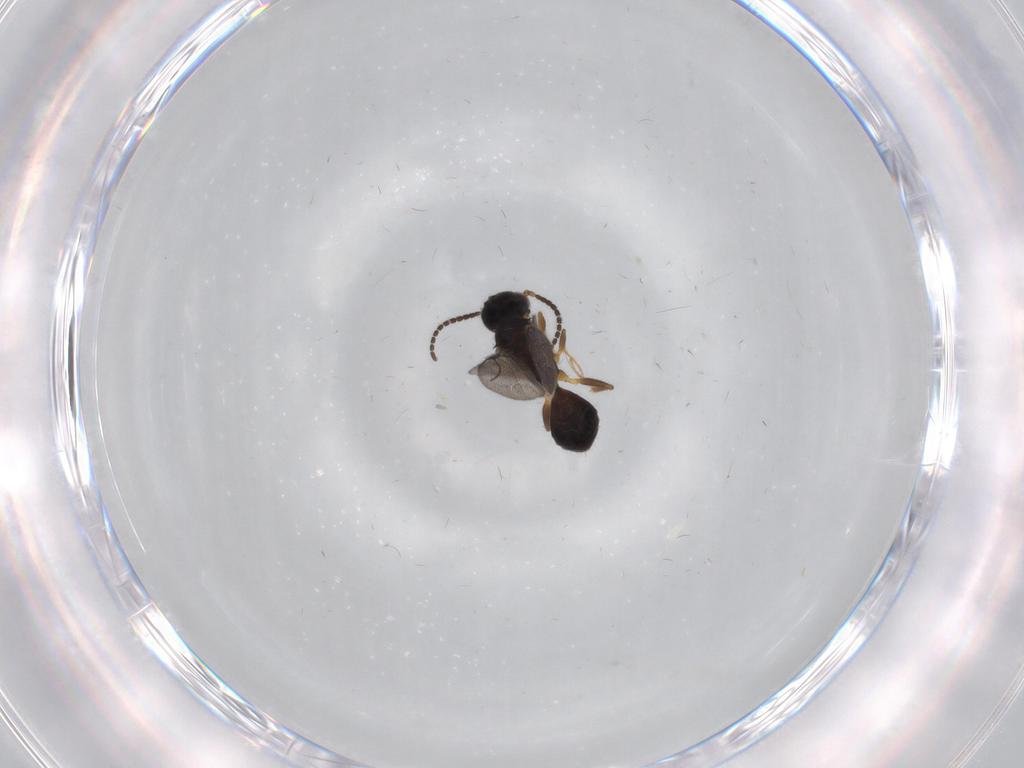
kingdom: Animalia
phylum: Arthropoda
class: Insecta
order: Hymenoptera
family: Bethylidae
